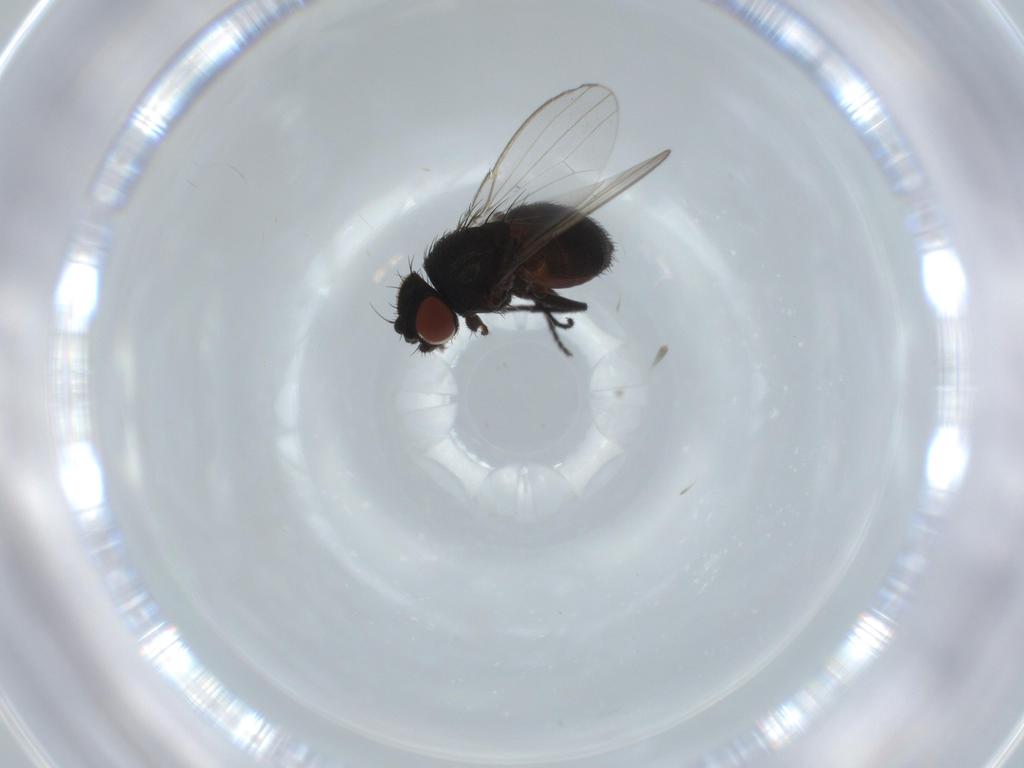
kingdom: Animalia
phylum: Arthropoda
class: Insecta
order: Diptera
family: Milichiidae
